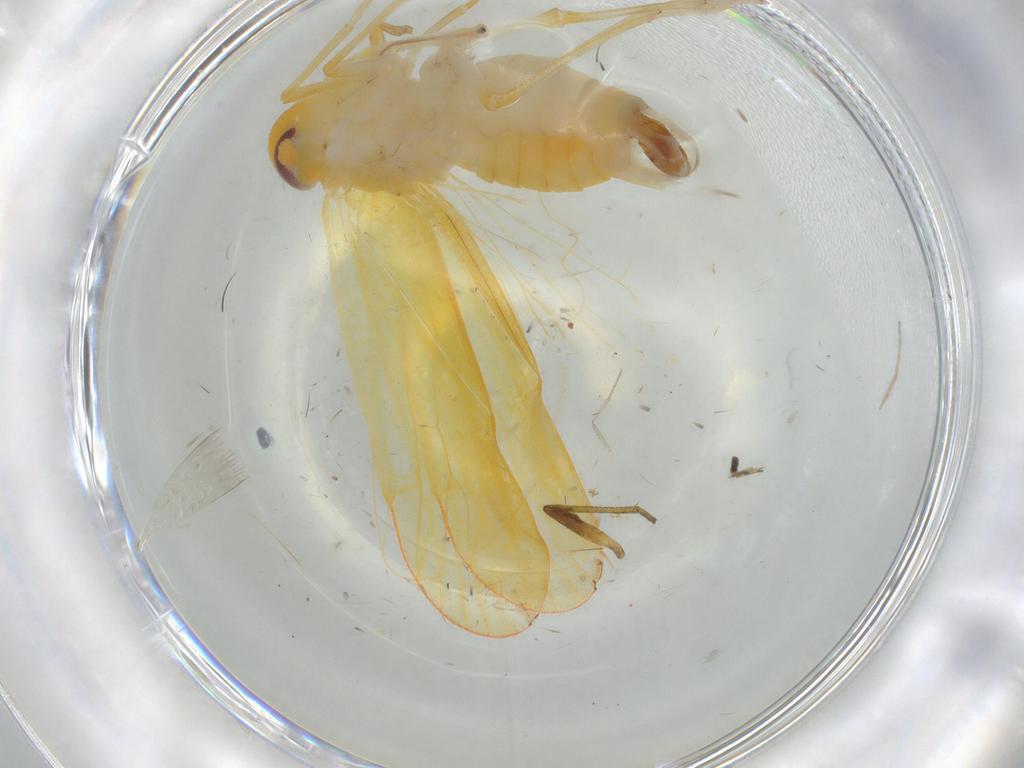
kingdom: Animalia
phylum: Arthropoda
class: Insecta
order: Hemiptera
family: Derbidae
